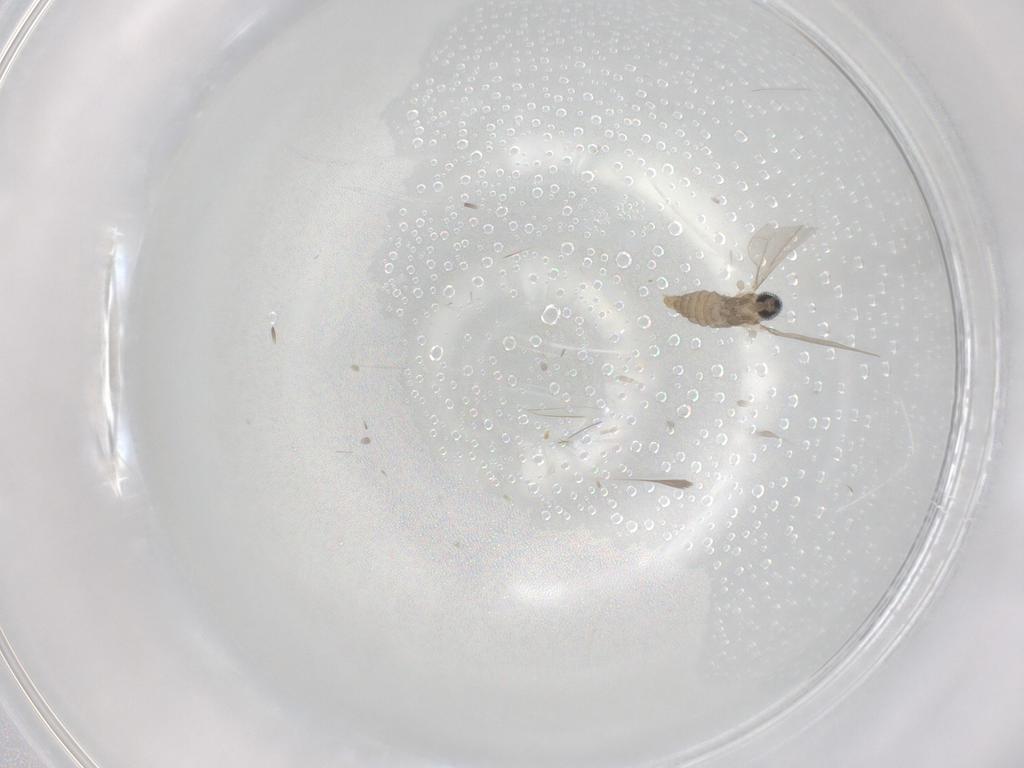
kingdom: Animalia
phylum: Arthropoda
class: Insecta
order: Diptera
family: Cecidomyiidae
